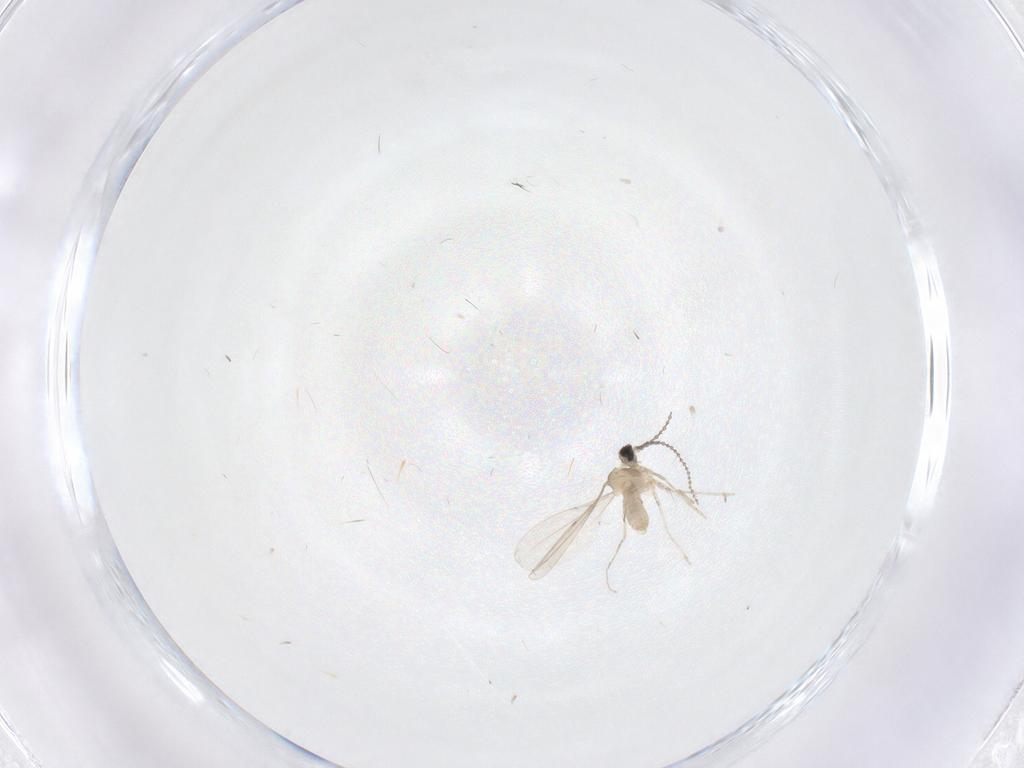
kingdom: Animalia
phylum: Arthropoda
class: Insecta
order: Diptera
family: Cecidomyiidae
